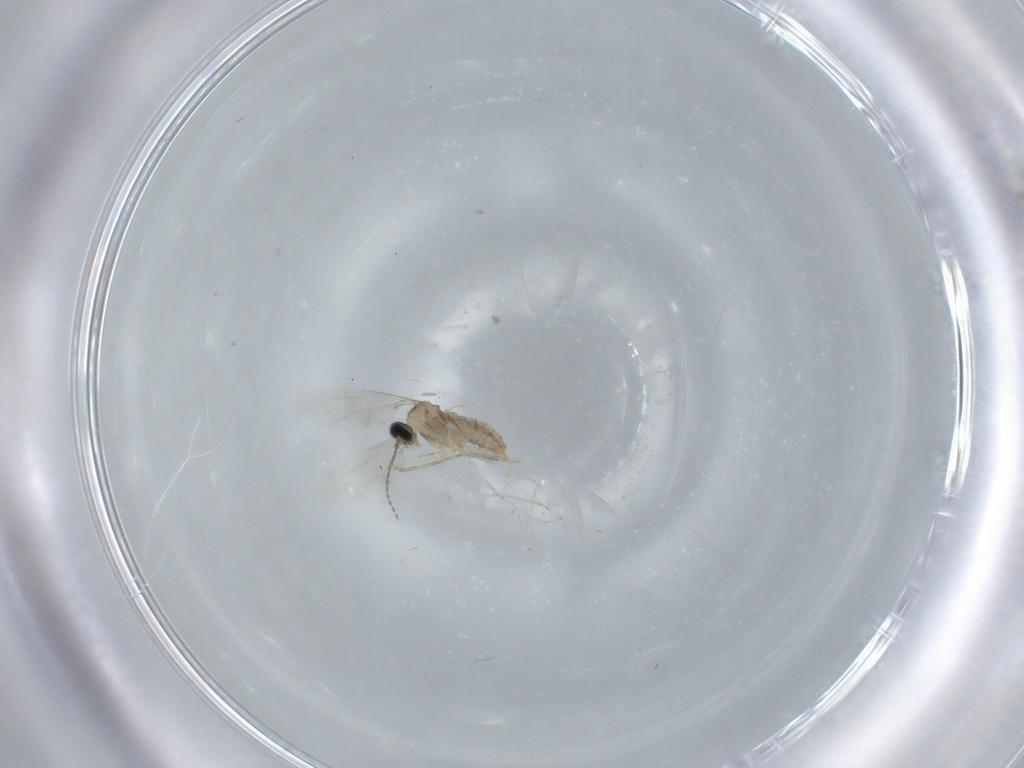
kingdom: Animalia
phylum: Arthropoda
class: Insecta
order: Diptera
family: Cecidomyiidae
